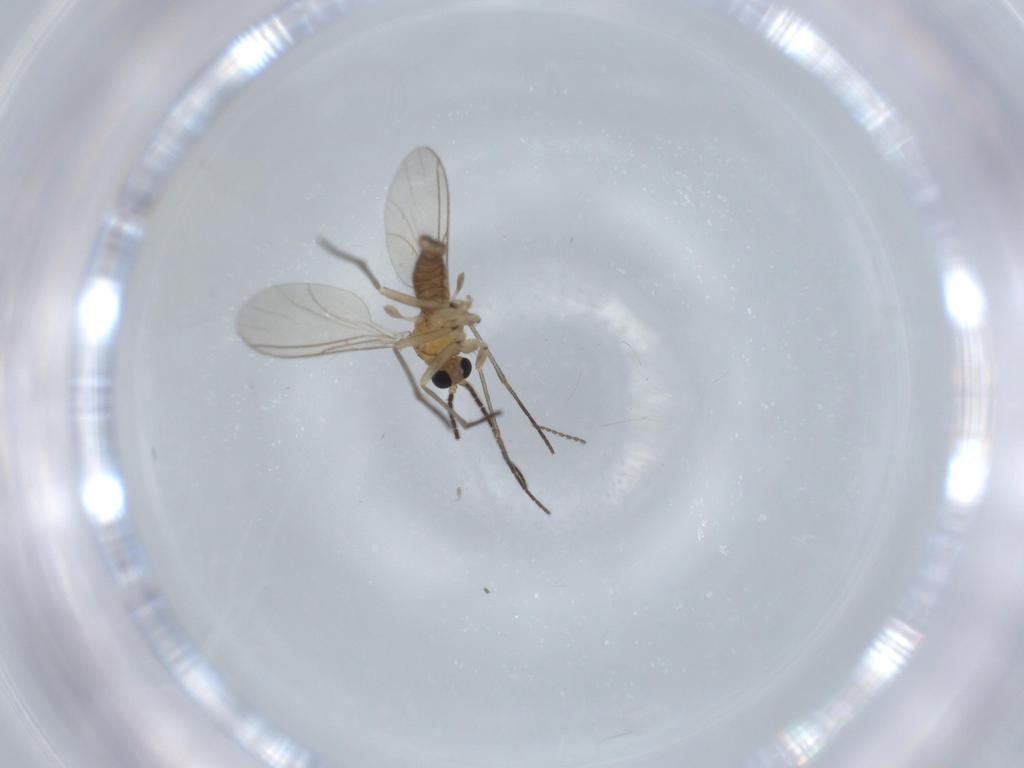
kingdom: Animalia
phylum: Arthropoda
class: Insecta
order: Diptera
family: Sciaridae
